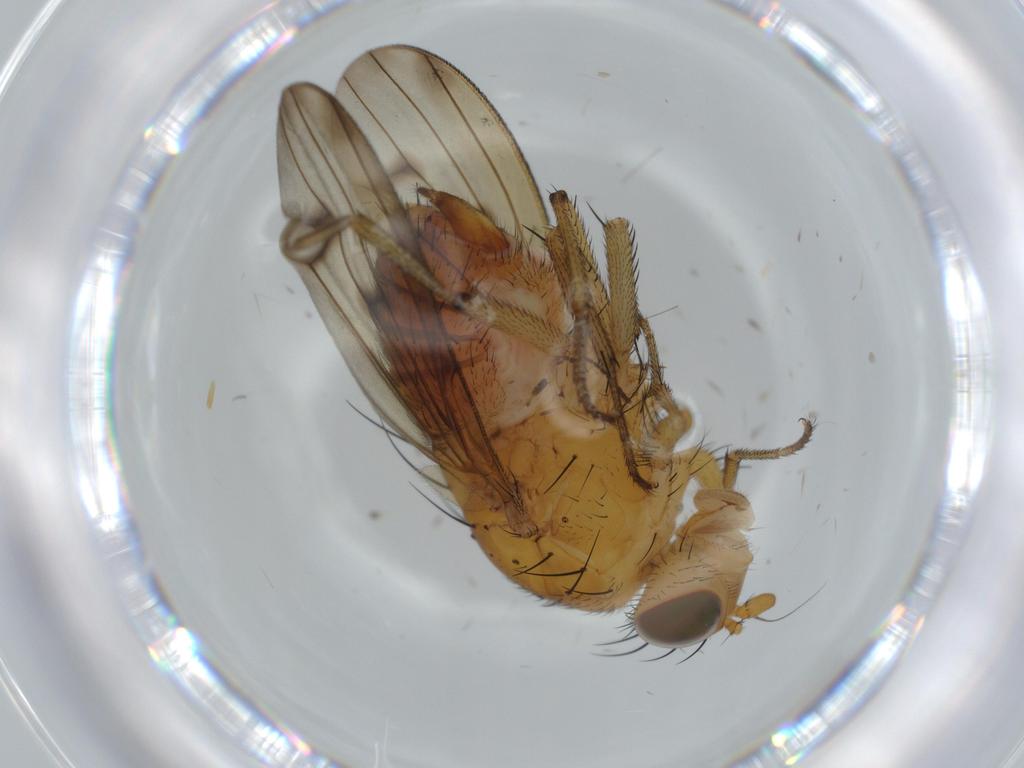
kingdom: Animalia
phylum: Arthropoda
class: Insecta
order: Diptera
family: Sciaridae
